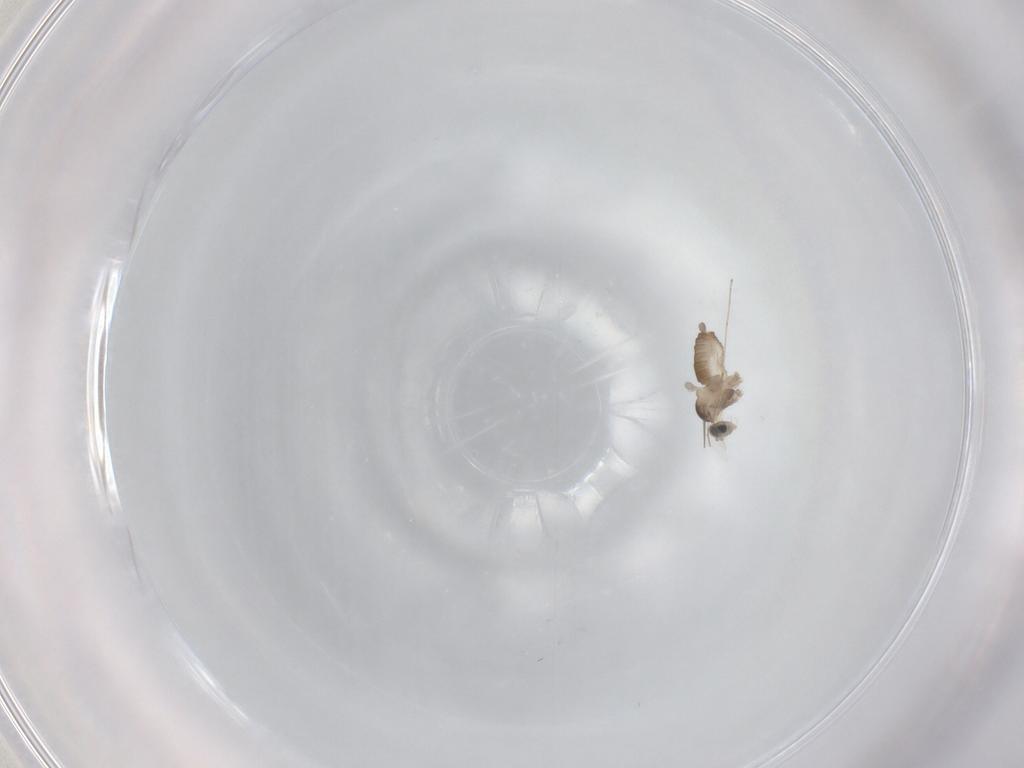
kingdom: Animalia
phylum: Arthropoda
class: Insecta
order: Diptera
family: Cecidomyiidae
